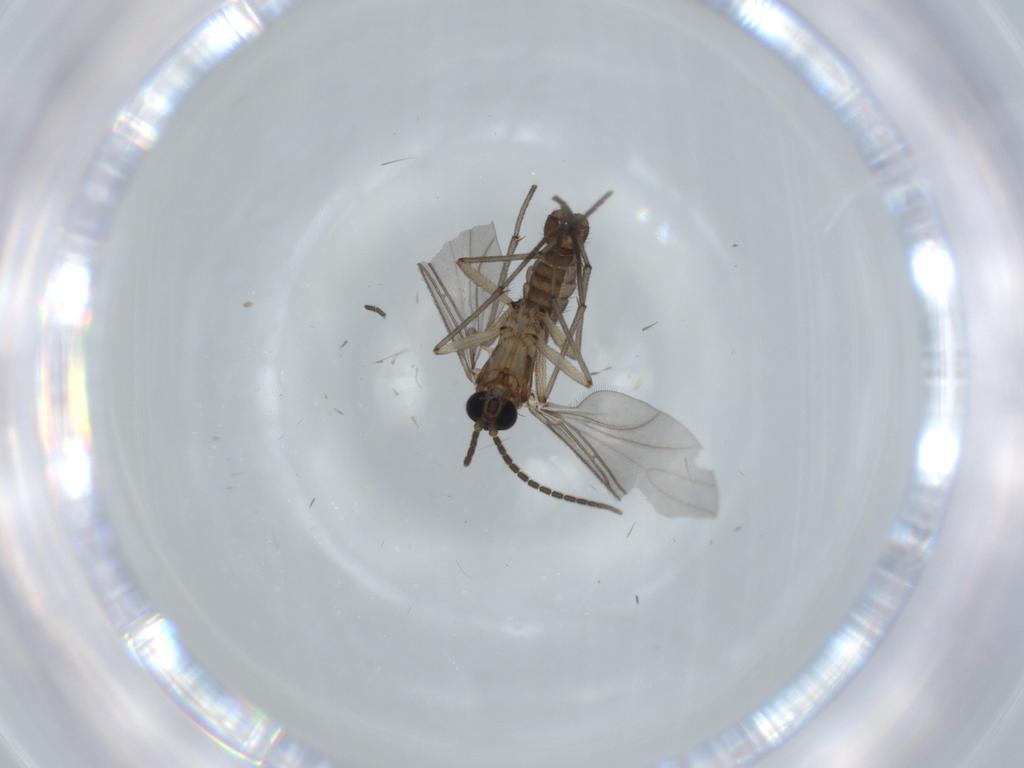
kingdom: Animalia
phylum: Arthropoda
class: Insecta
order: Diptera
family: Sciaridae
